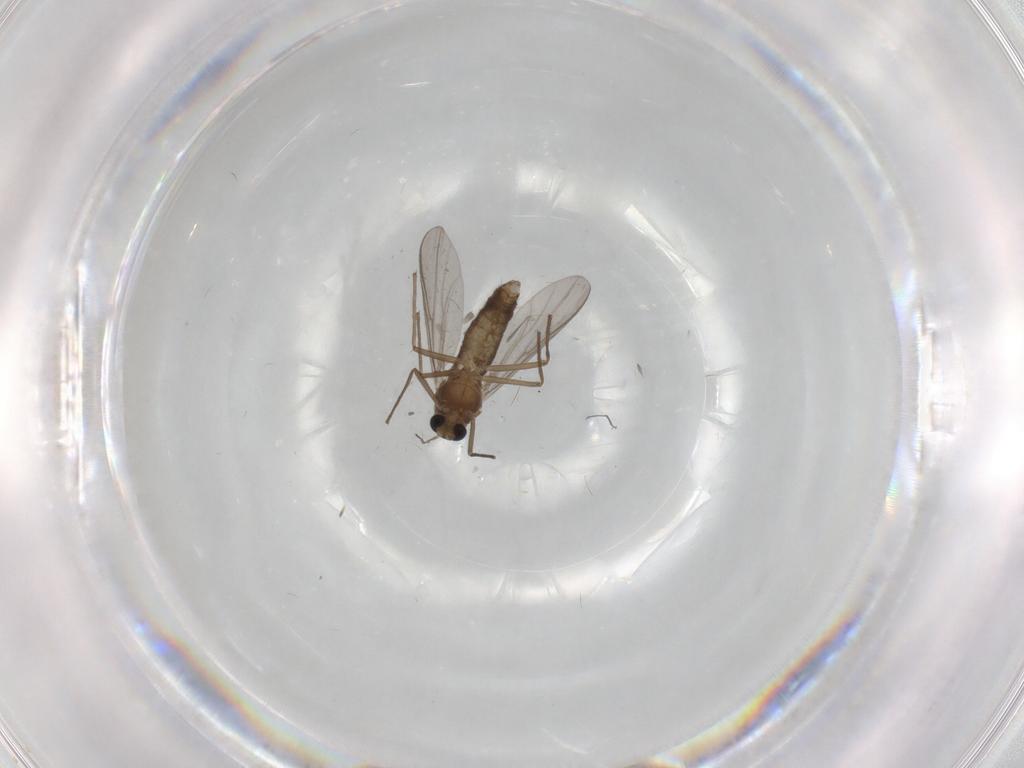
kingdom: Animalia
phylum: Arthropoda
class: Insecta
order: Diptera
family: Chironomidae
